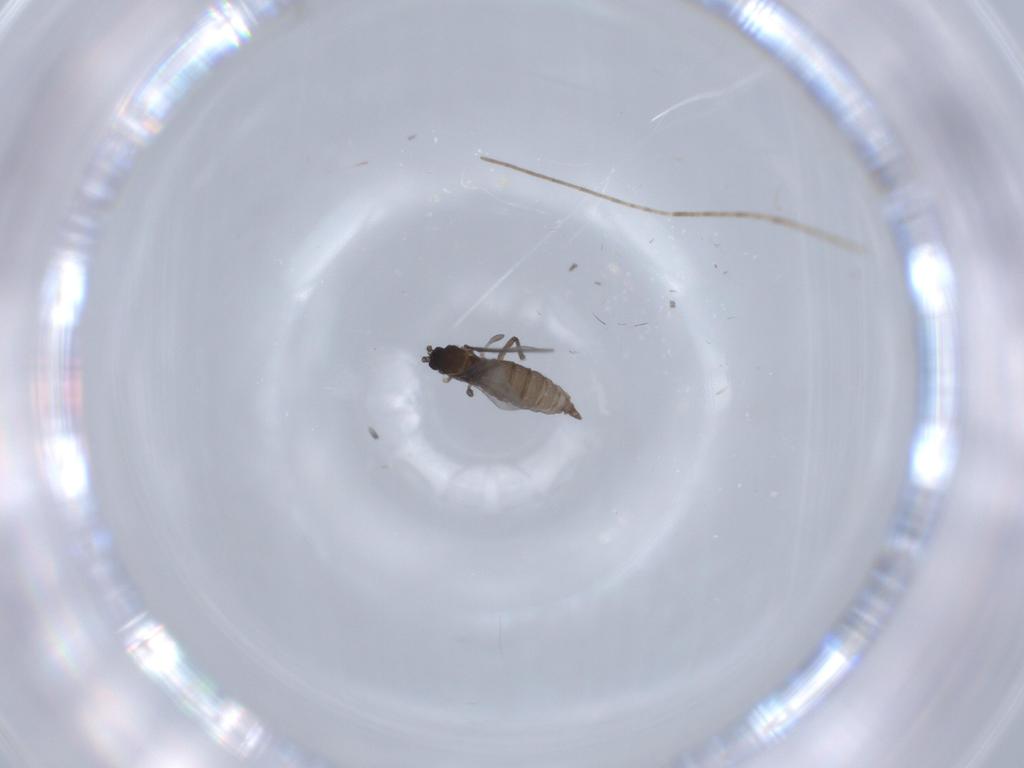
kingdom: Animalia
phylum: Arthropoda
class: Insecta
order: Diptera
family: Sciaridae
